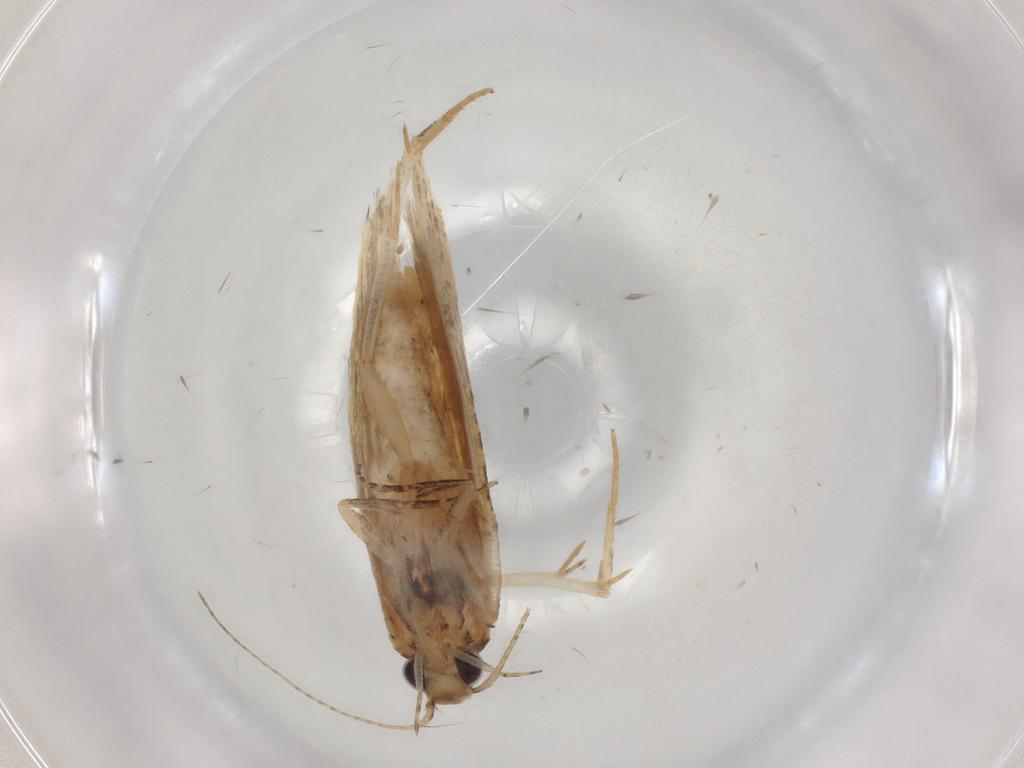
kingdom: Animalia
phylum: Arthropoda
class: Insecta
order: Lepidoptera
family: Gelechiidae
